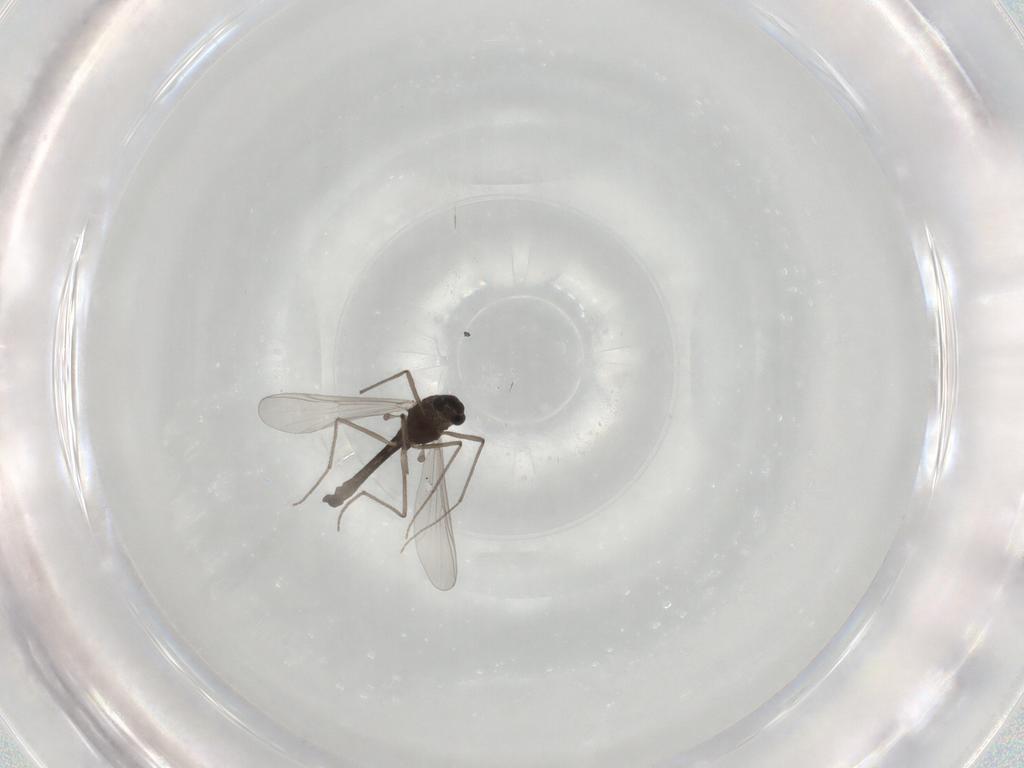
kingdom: Animalia
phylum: Arthropoda
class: Insecta
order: Diptera
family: Chironomidae
